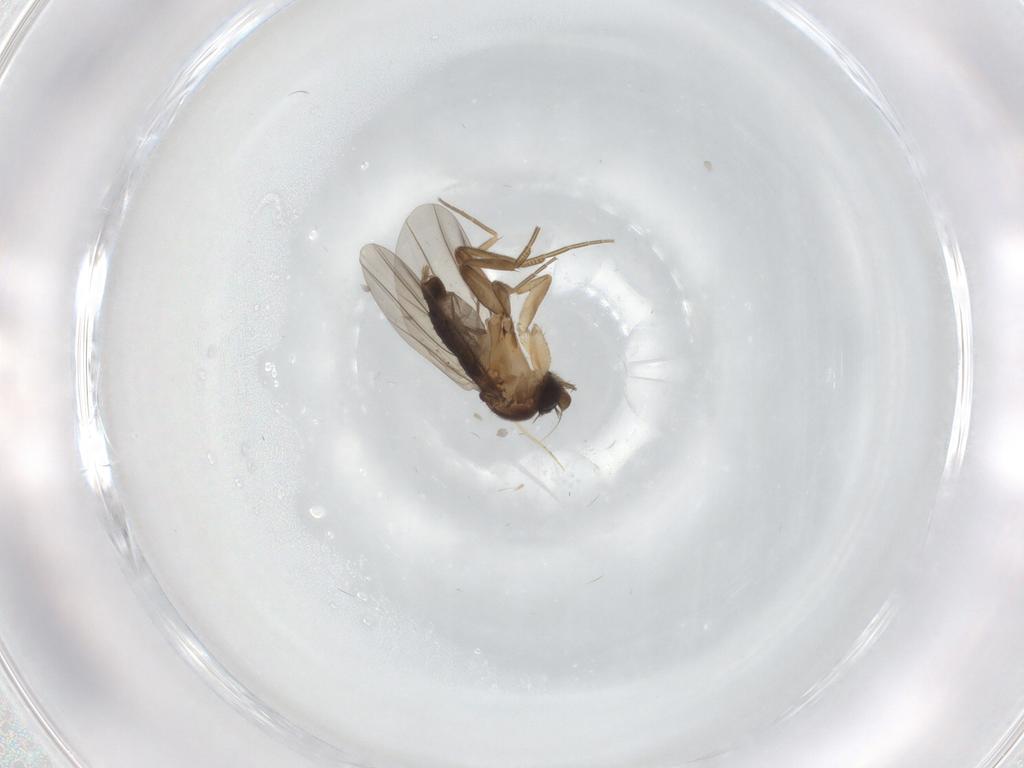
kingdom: Animalia
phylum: Arthropoda
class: Insecta
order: Diptera
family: Phoridae
